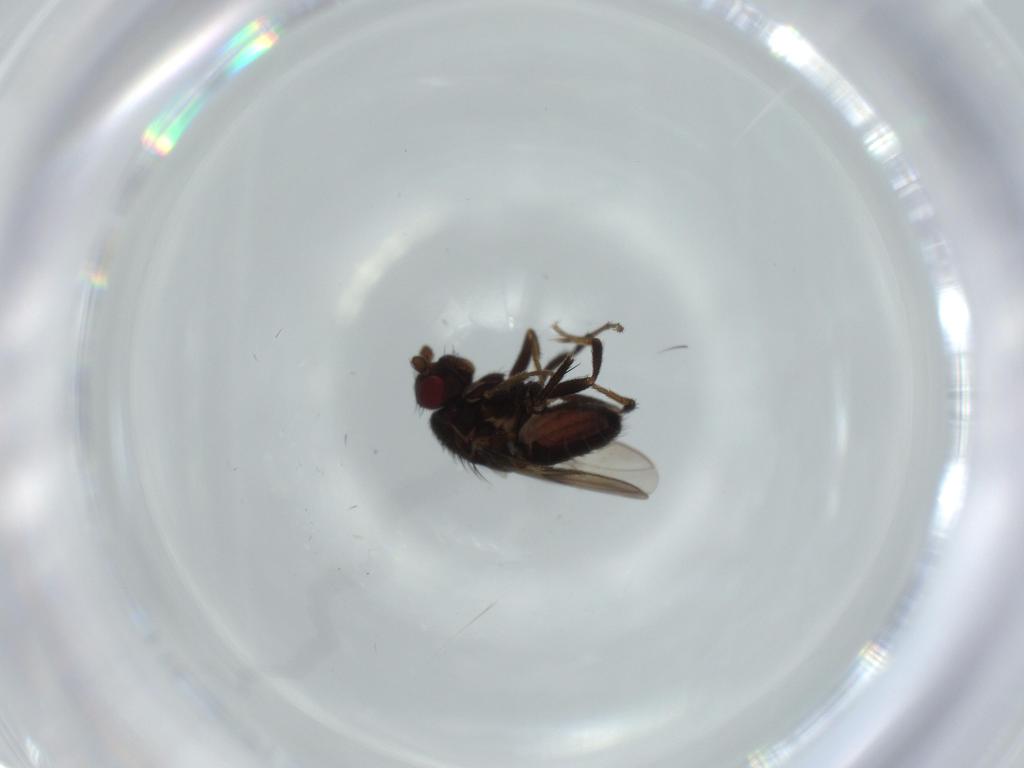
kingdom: Animalia
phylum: Arthropoda
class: Insecta
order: Diptera
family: Sphaeroceridae
